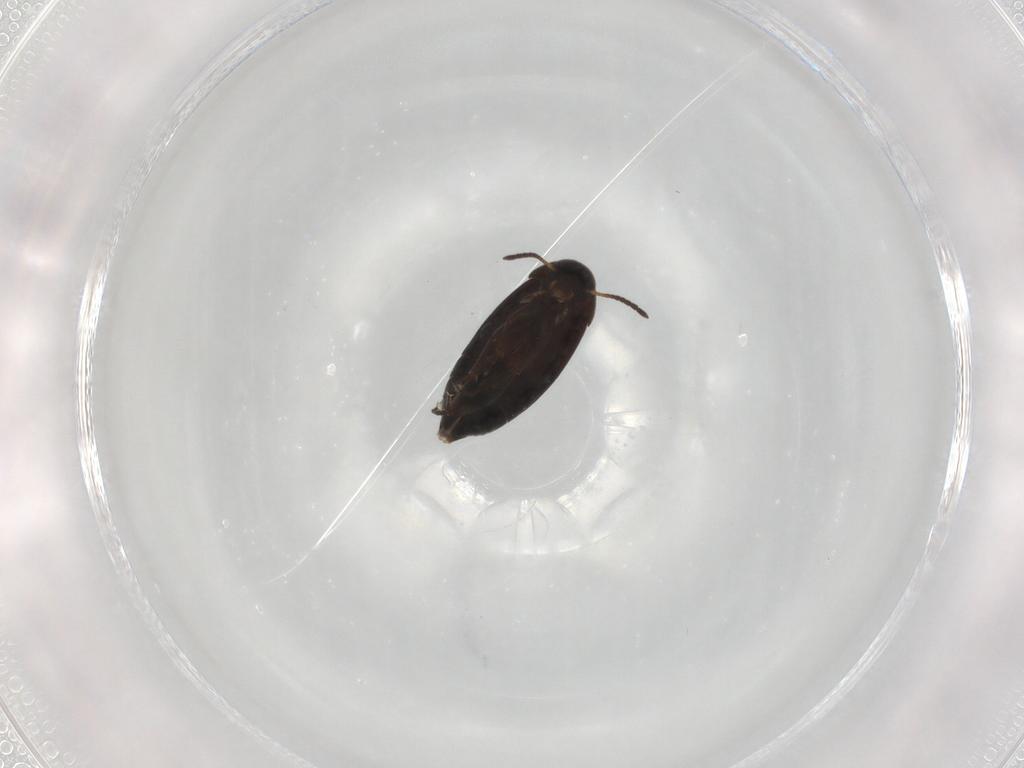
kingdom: Animalia
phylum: Arthropoda
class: Insecta
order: Coleoptera
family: Scraptiidae
